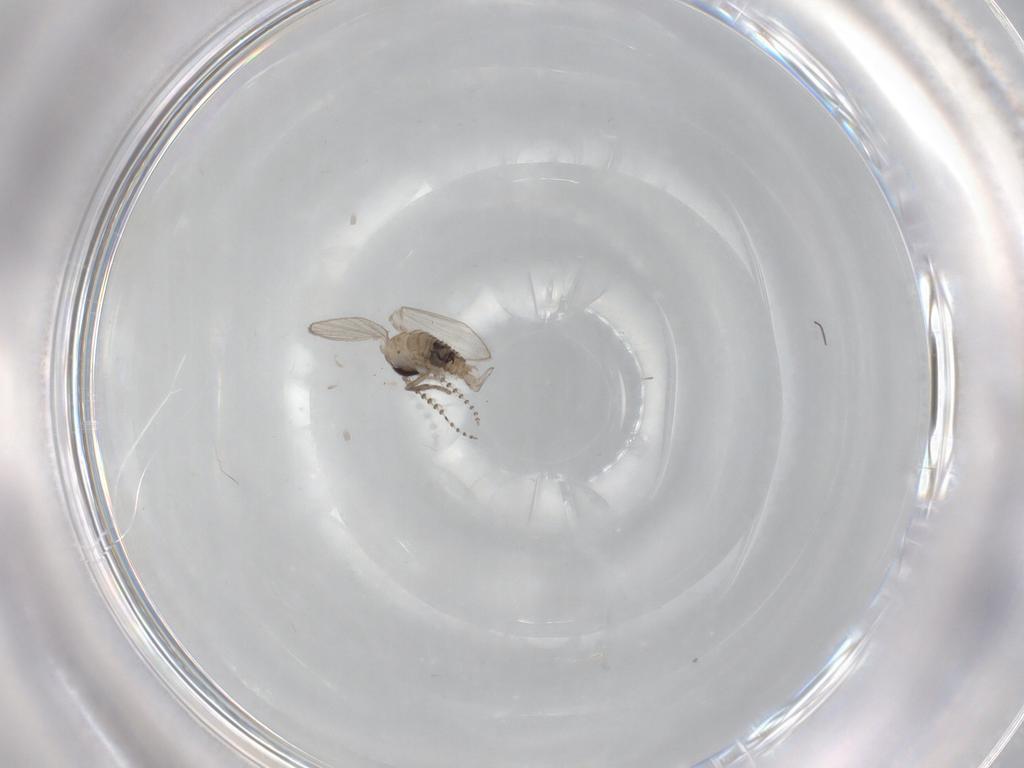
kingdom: Animalia
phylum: Arthropoda
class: Insecta
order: Diptera
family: Psychodidae
